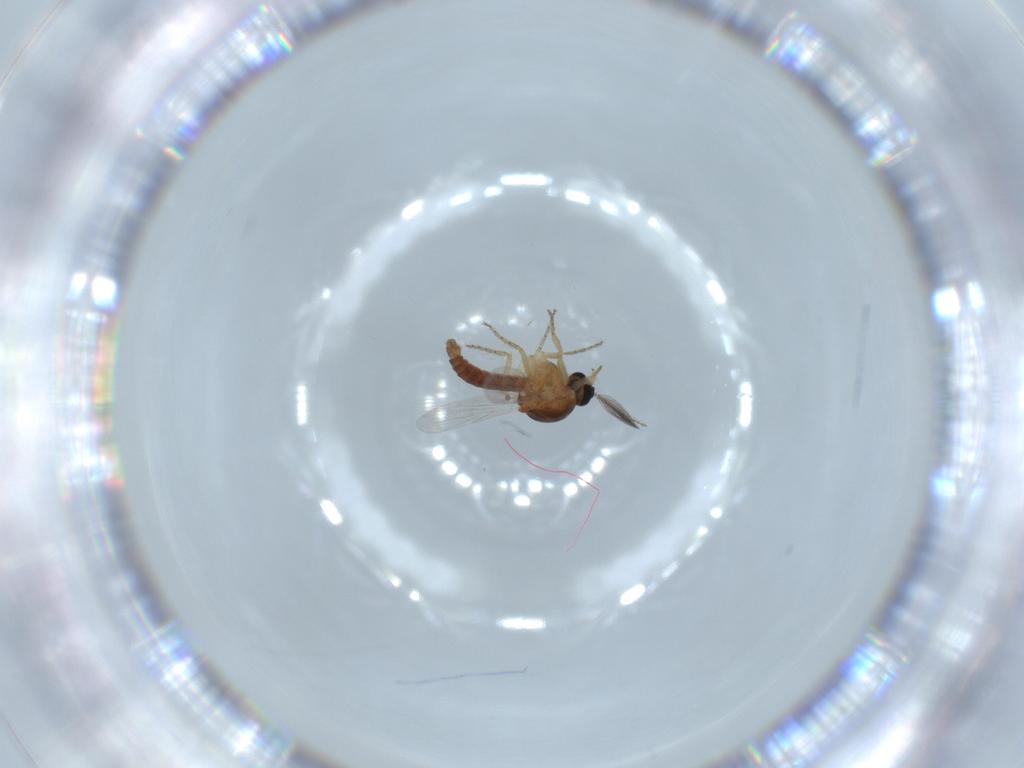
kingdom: Animalia
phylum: Arthropoda
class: Insecta
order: Diptera
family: Ceratopogonidae
